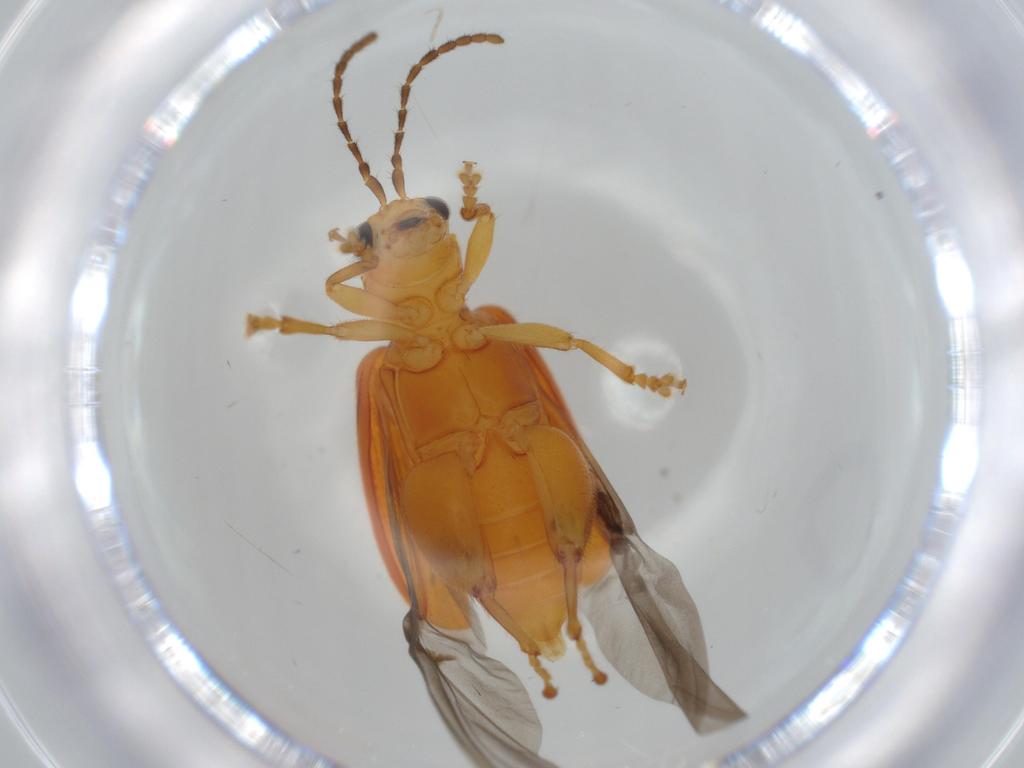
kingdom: Animalia
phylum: Arthropoda
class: Insecta
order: Coleoptera
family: Chrysomelidae
